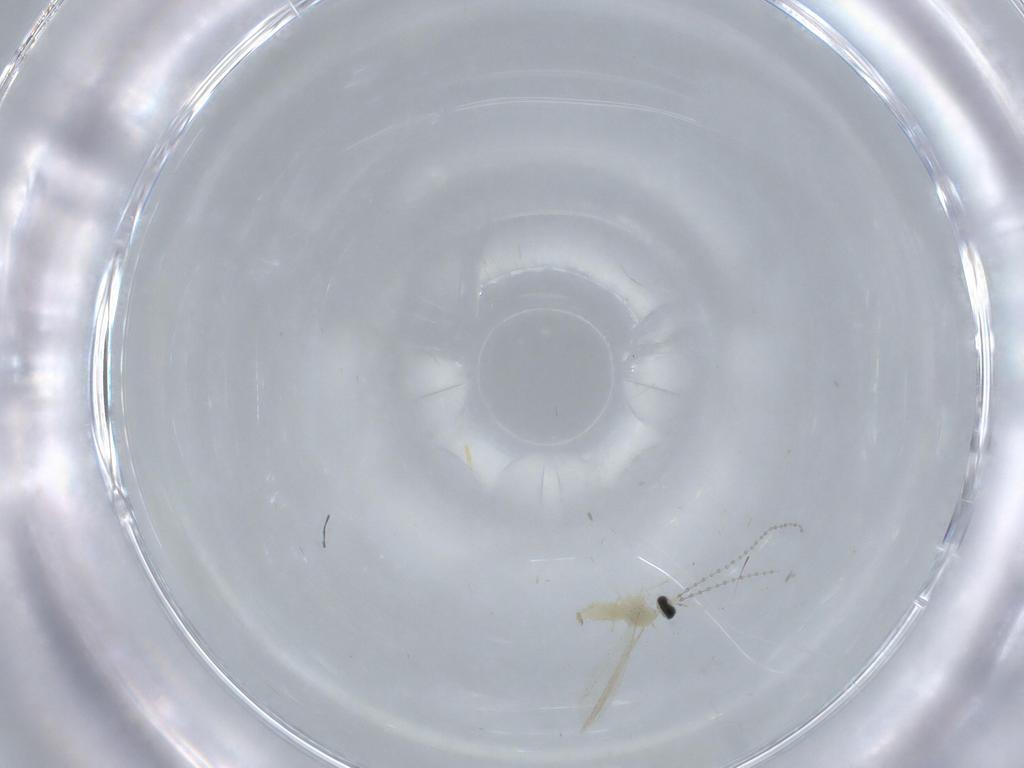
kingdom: Animalia
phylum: Arthropoda
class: Insecta
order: Diptera
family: Cecidomyiidae
